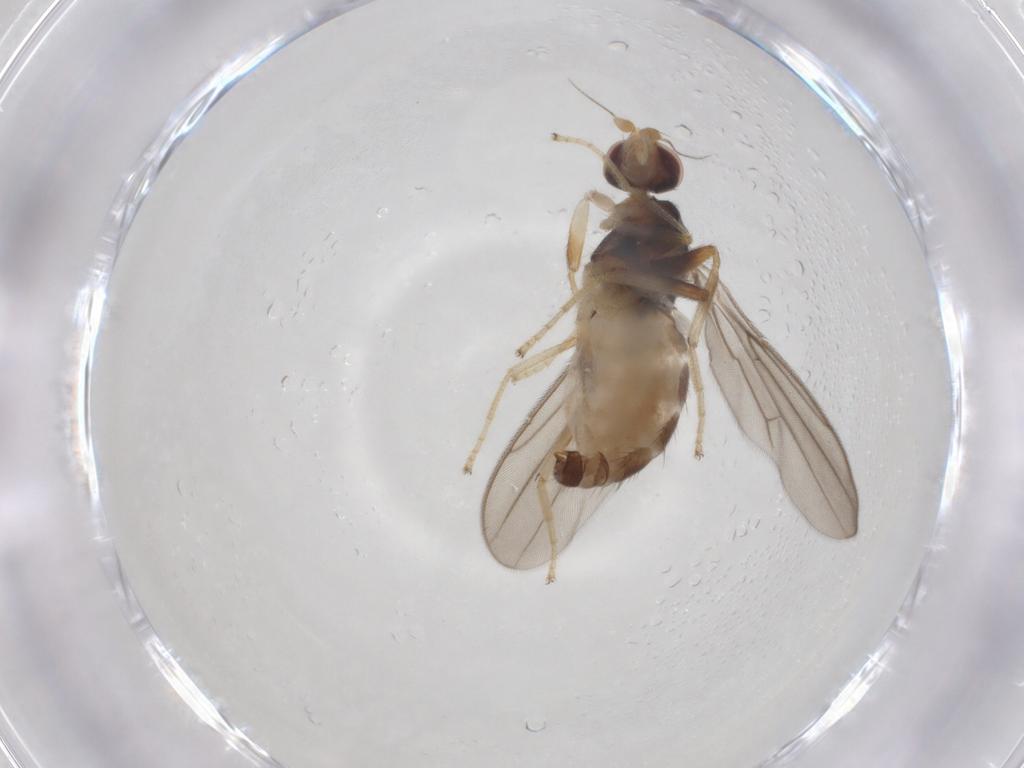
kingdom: Animalia
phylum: Arthropoda
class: Insecta
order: Diptera
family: Chloropidae
